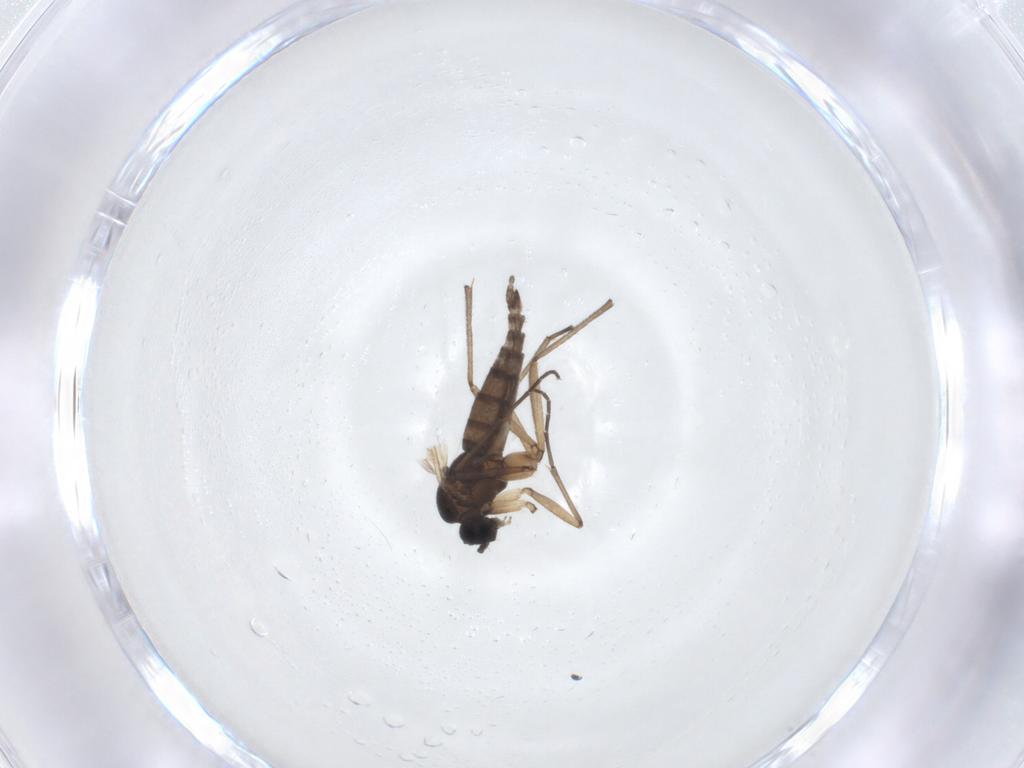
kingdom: Animalia
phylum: Arthropoda
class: Insecta
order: Diptera
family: Sciaridae
